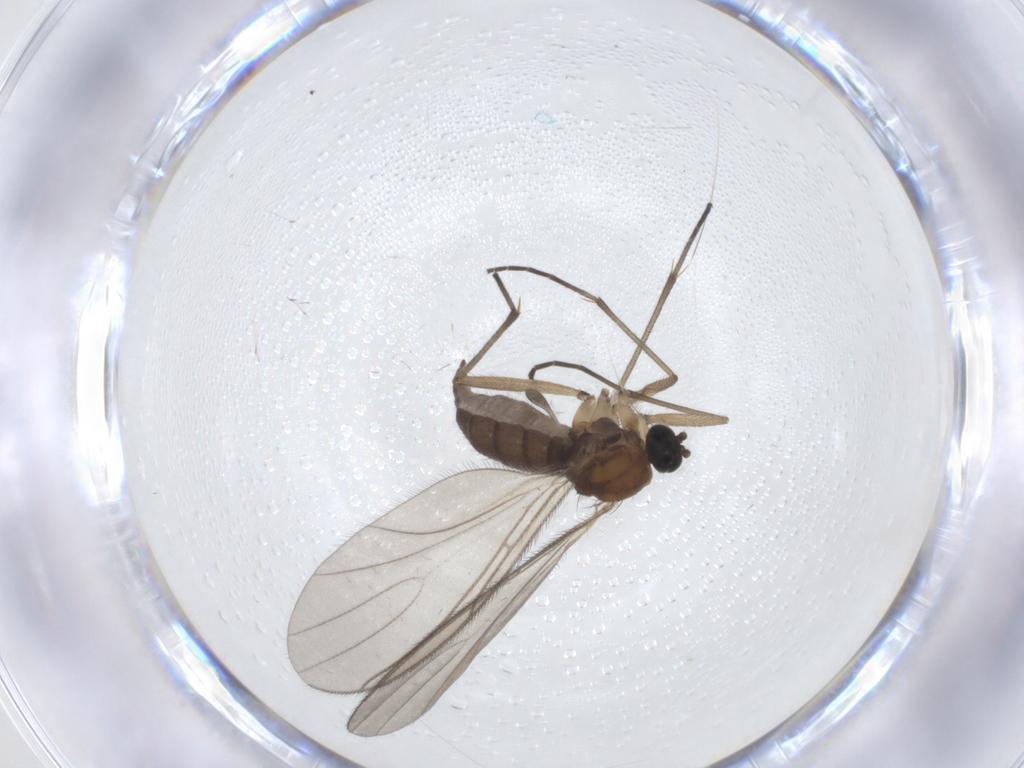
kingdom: Animalia
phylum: Arthropoda
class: Insecta
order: Diptera
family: Sciaridae
